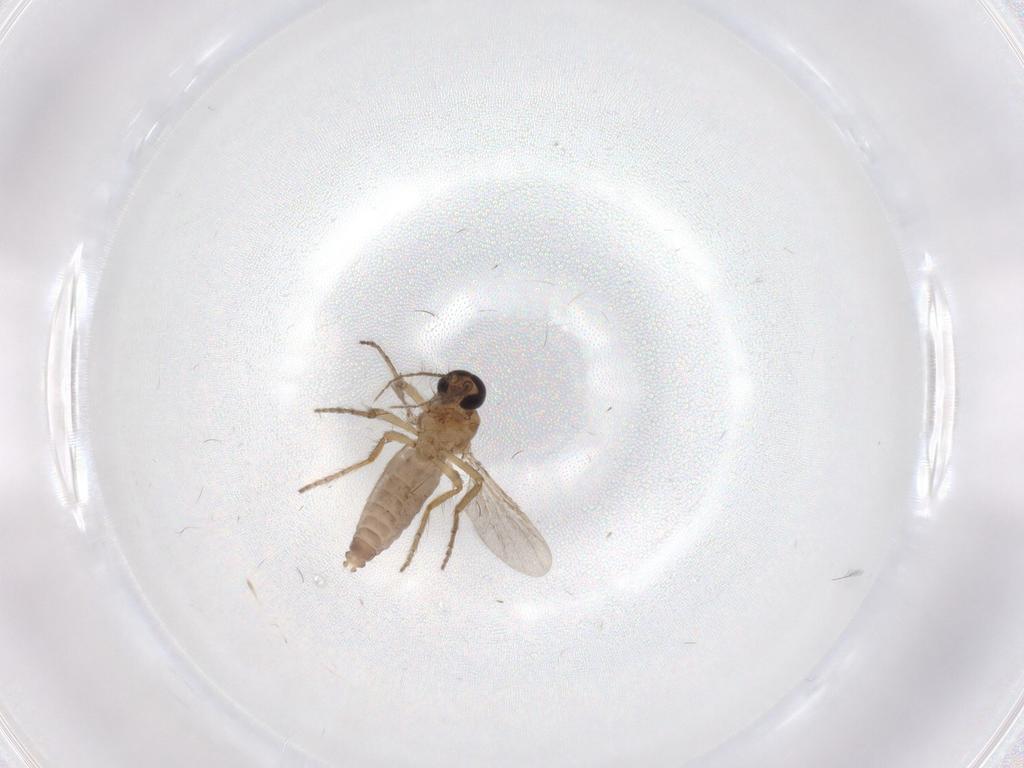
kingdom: Animalia
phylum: Arthropoda
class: Insecta
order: Diptera
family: Ceratopogonidae
